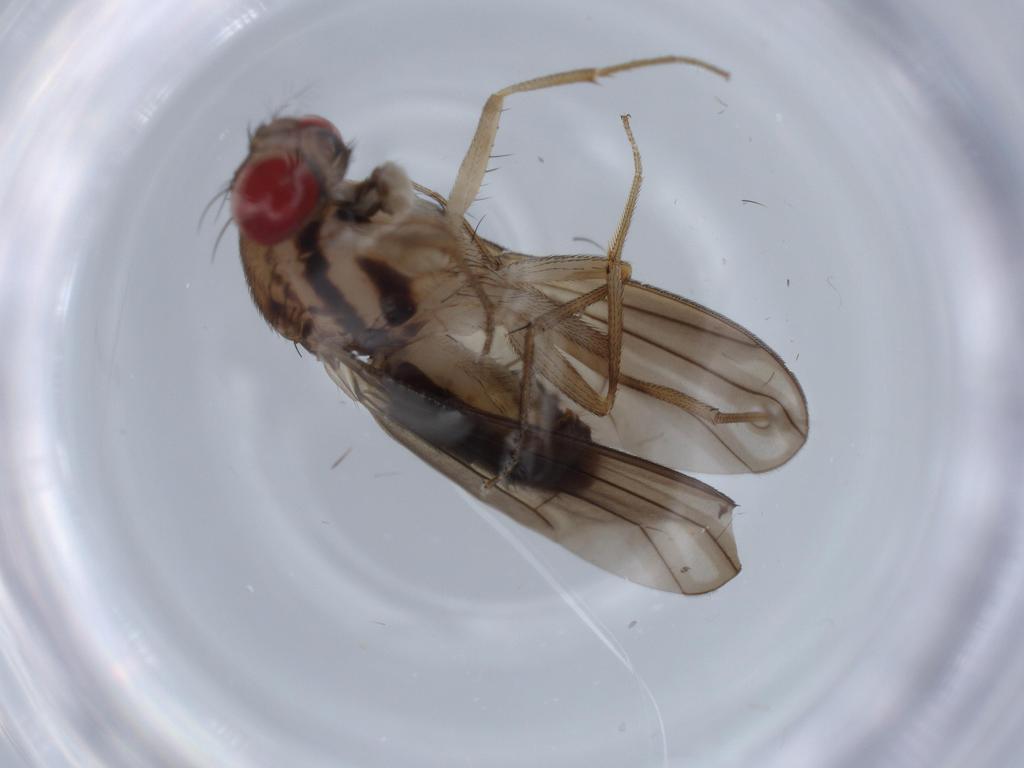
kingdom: Animalia
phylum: Arthropoda
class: Insecta
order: Diptera
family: Drosophilidae
